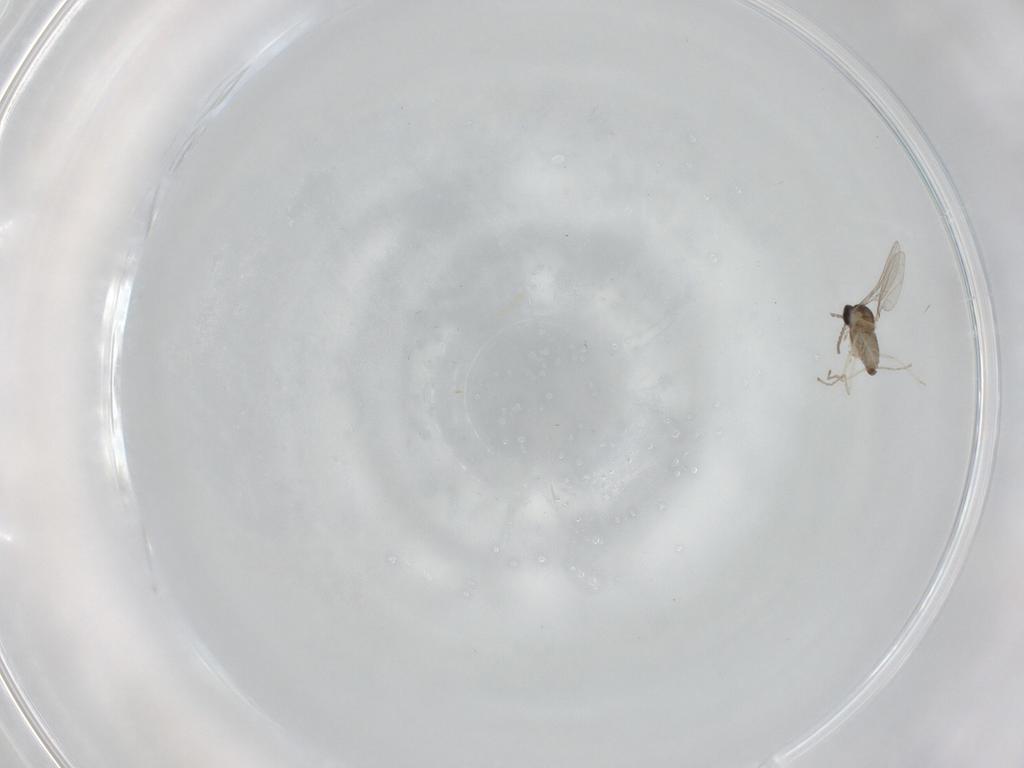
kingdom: Animalia
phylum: Arthropoda
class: Insecta
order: Diptera
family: Cecidomyiidae
